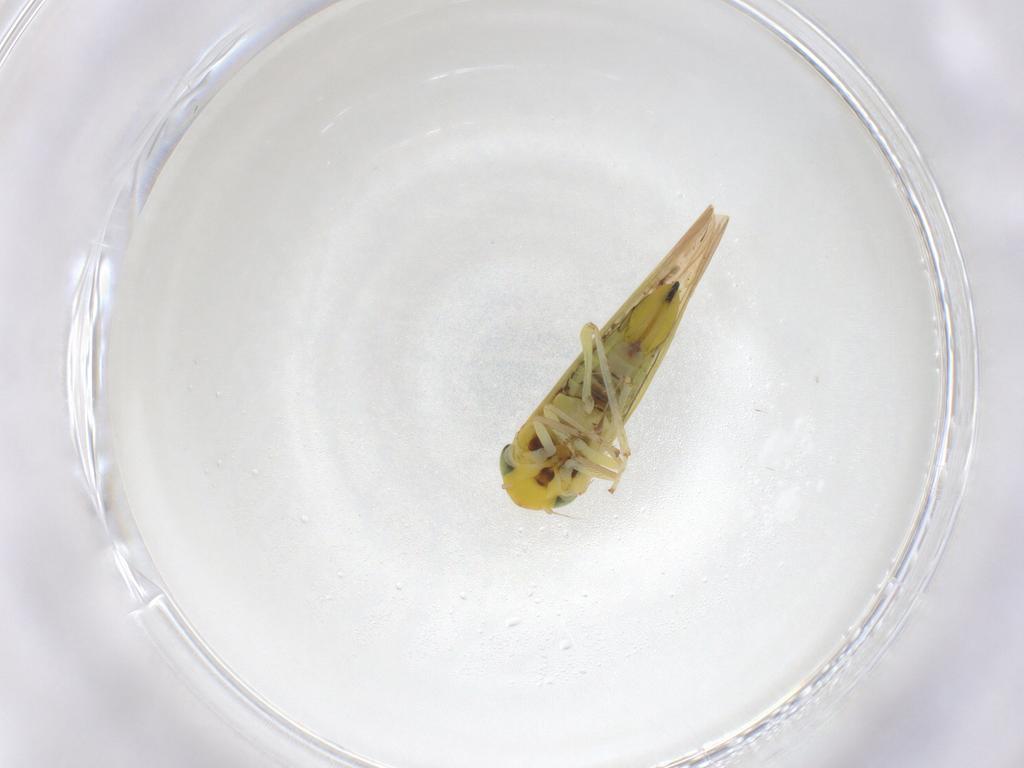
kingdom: Animalia
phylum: Arthropoda
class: Insecta
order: Hemiptera
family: Cicadellidae
